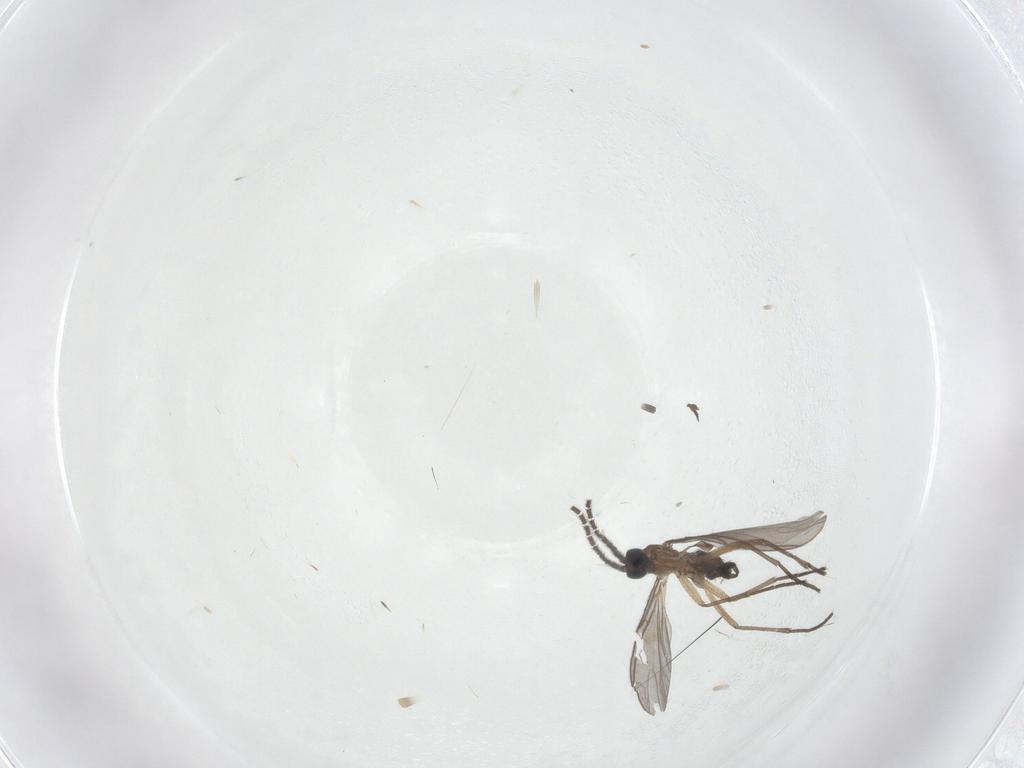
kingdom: Animalia
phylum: Arthropoda
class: Insecta
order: Diptera
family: Sciaridae
